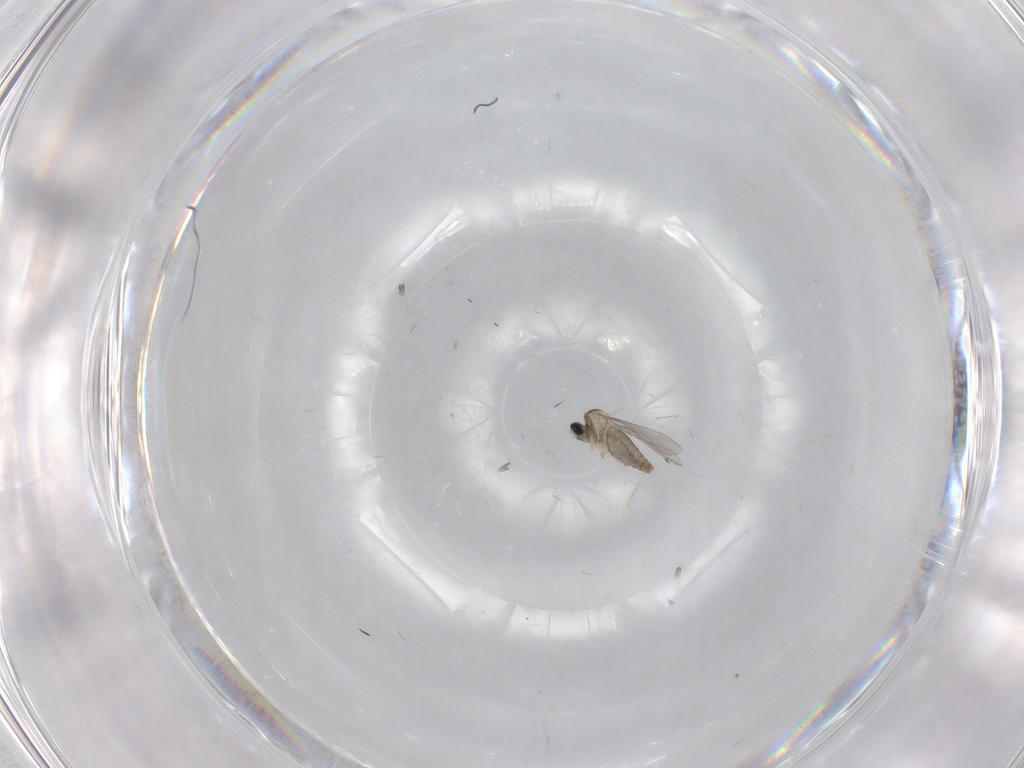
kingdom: Animalia
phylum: Arthropoda
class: Insecta
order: Diptera
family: Cecidomyiidae
